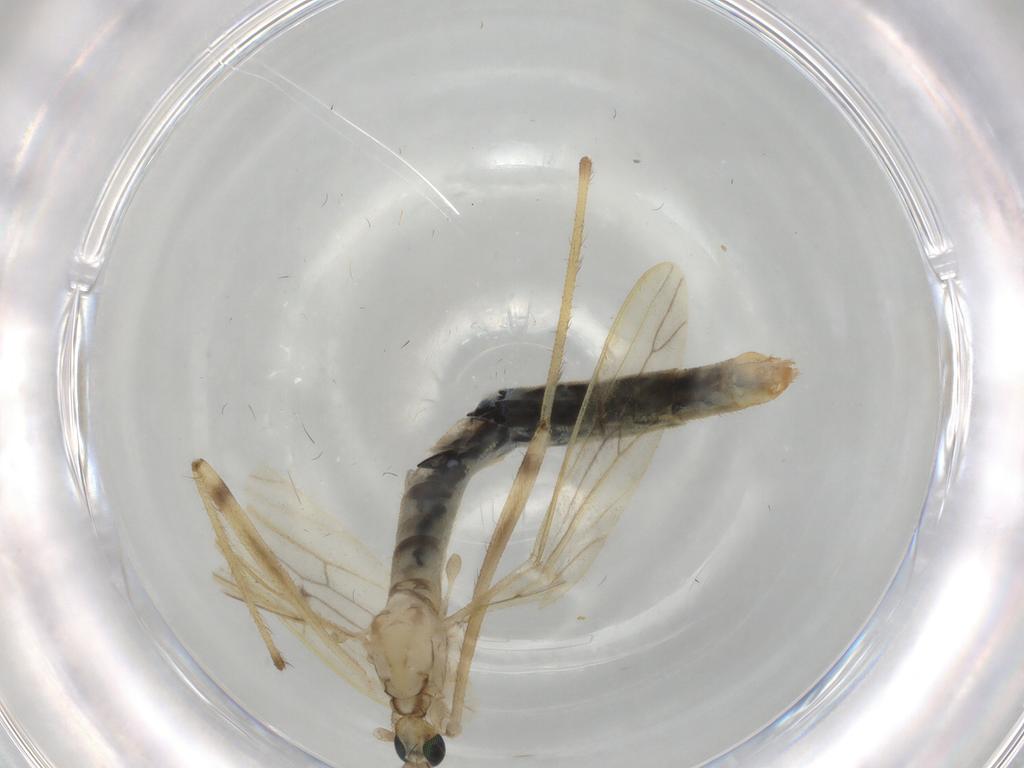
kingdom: Animalia
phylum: Arthropoda
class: Insecta
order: Diptera
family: Limoniidae
